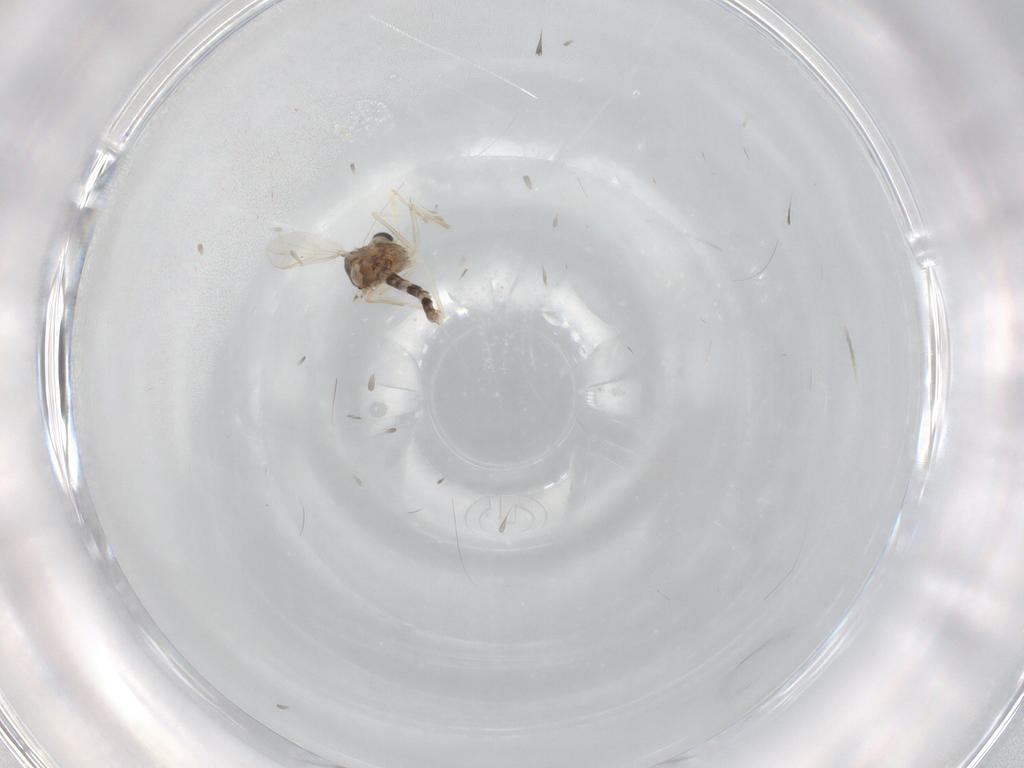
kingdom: Animalia
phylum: Arthropoda
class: Insecta
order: Diptera
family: Chironomidae
